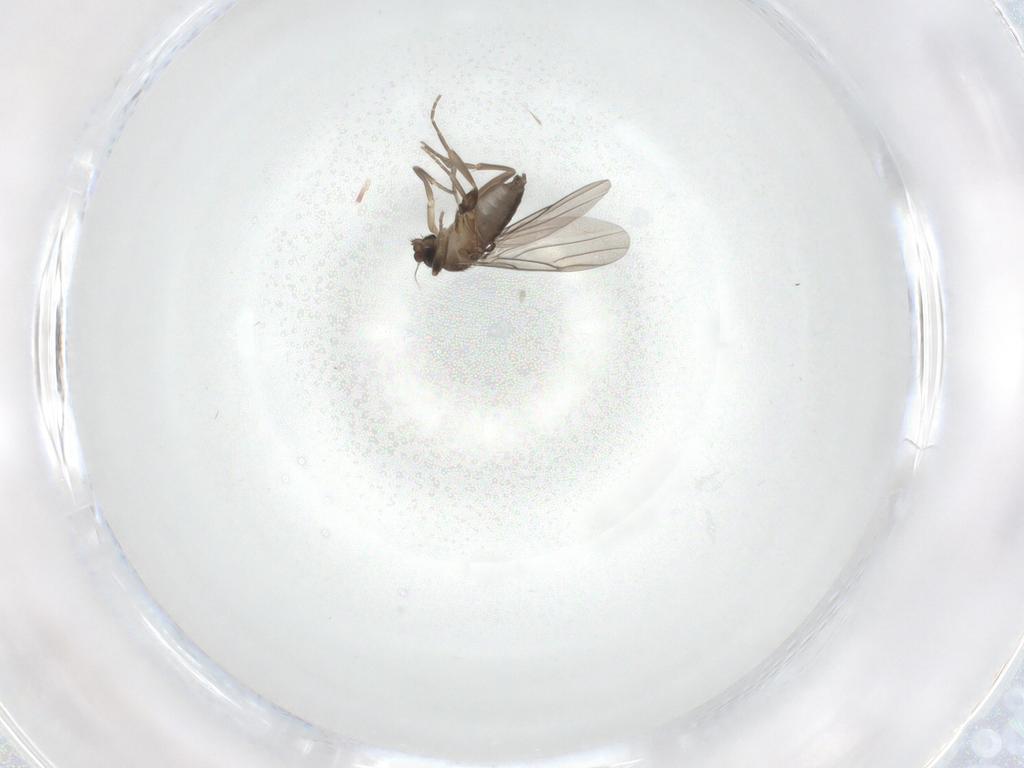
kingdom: Animalia
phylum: Arthropoda
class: Insecta
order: Diptera
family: Phoridae
